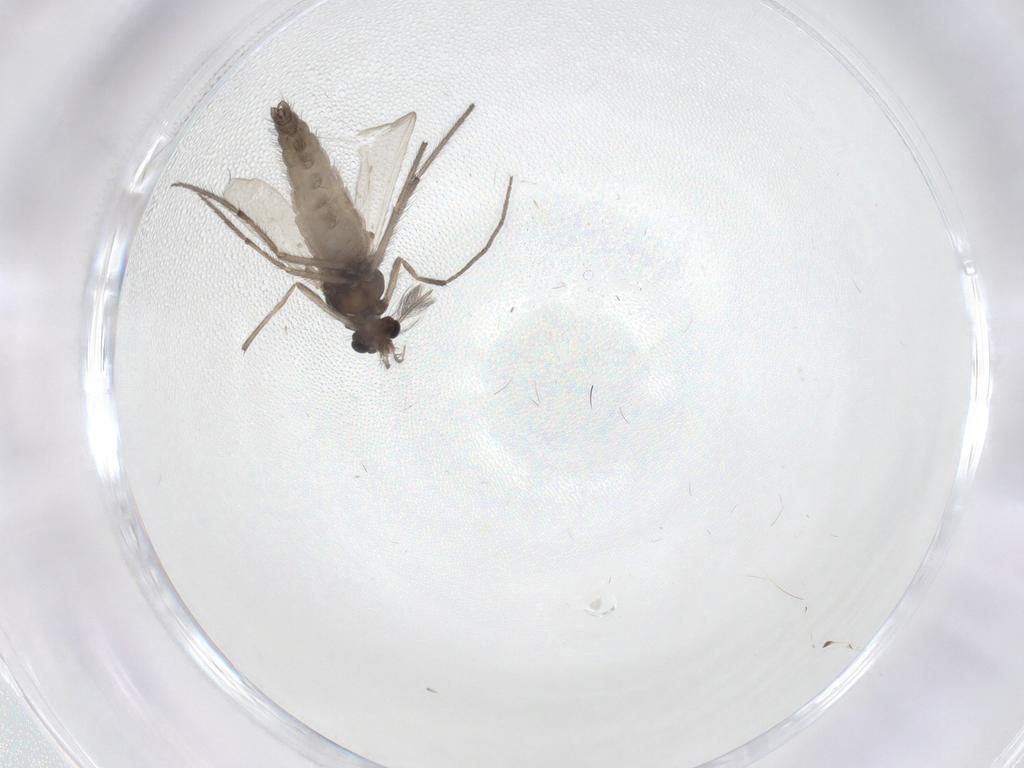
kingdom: Animalia
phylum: Arthropoda
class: Insecta
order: Diptera
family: Chironomidae
